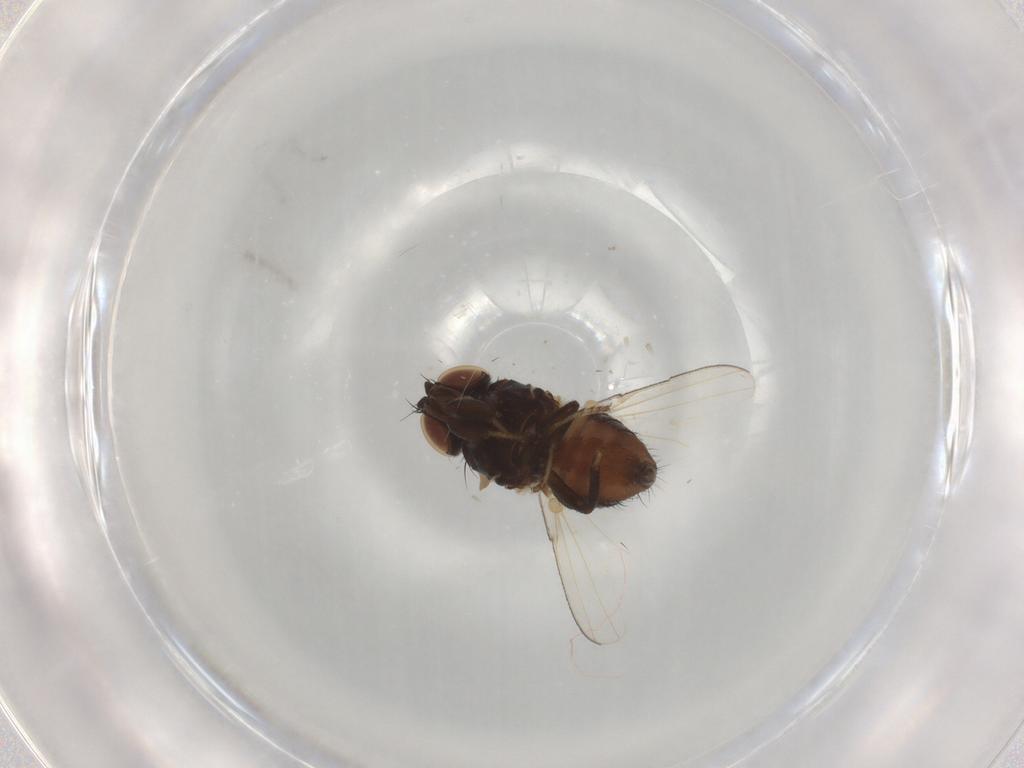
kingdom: Animalia
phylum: Arthropoda
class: Insecta
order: Diptera
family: Milichiidae
